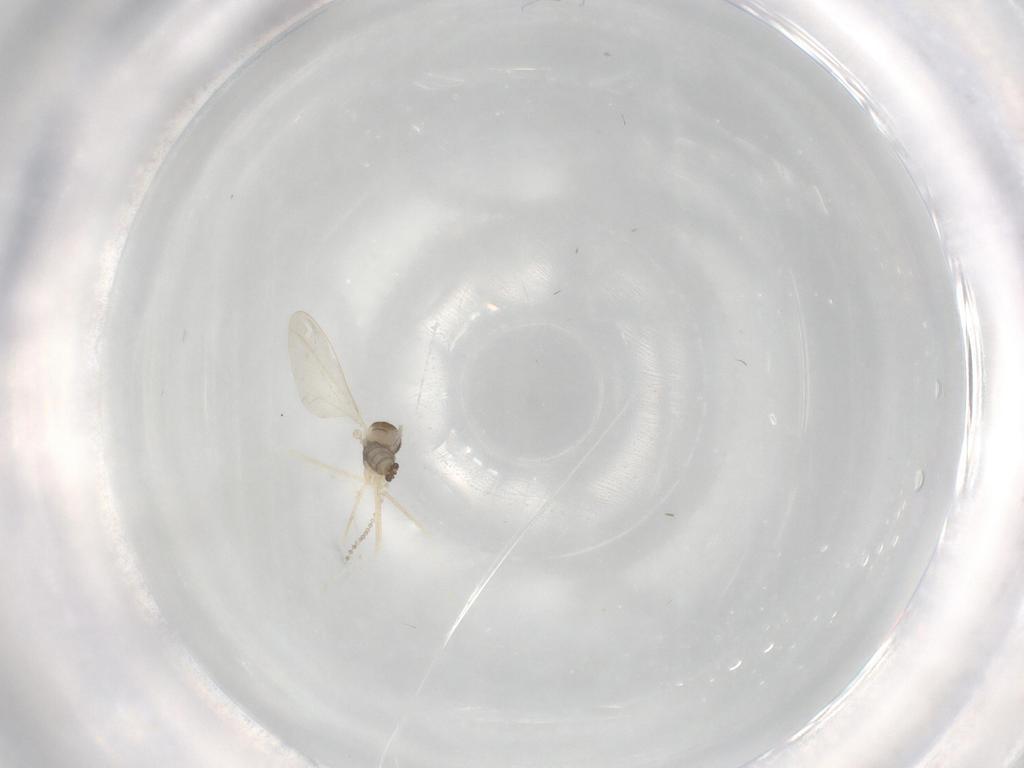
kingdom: Animalia
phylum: Arthropoda
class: Insecta
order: Diptera
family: Cecidomyiidae
